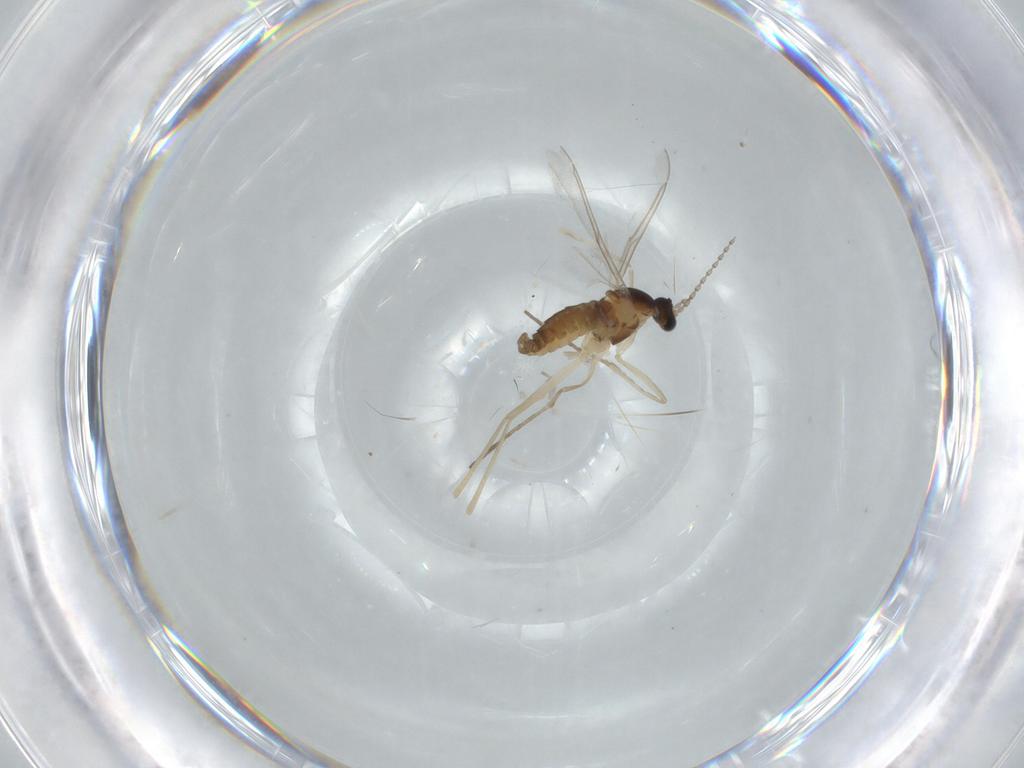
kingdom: Animalia
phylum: Arthropoda
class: Insecta
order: Diptera
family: Cecidomyiidae
